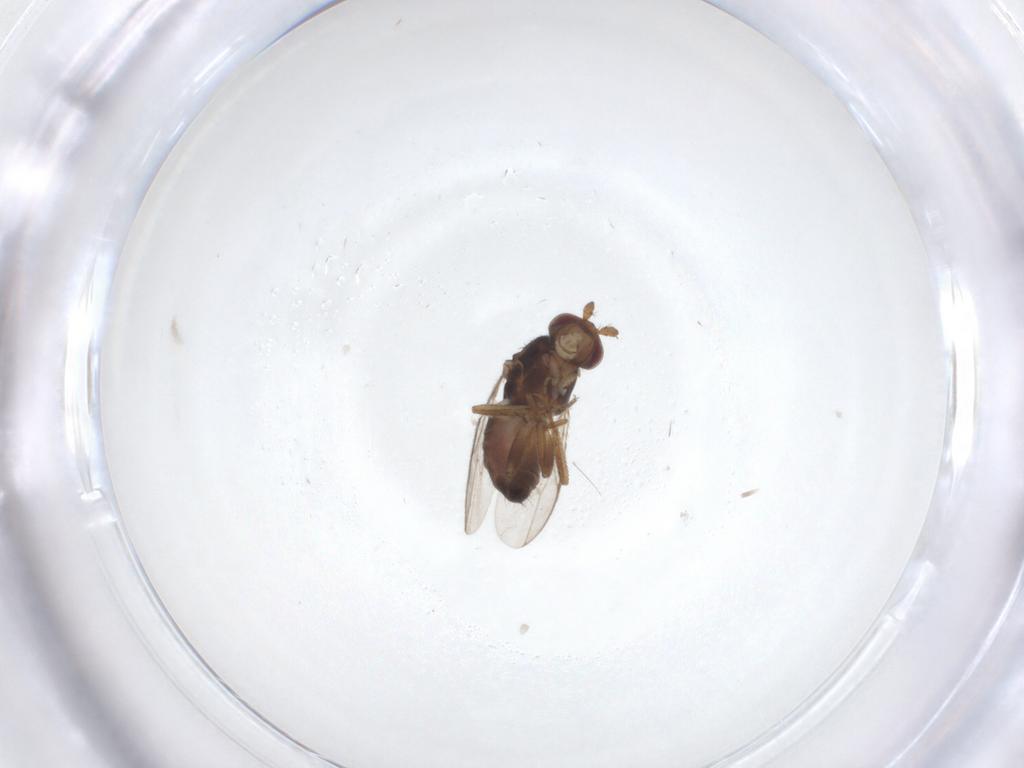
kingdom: Animalia
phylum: Arthropoda
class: Insecta
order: Diptera
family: Sphaeroceridae
